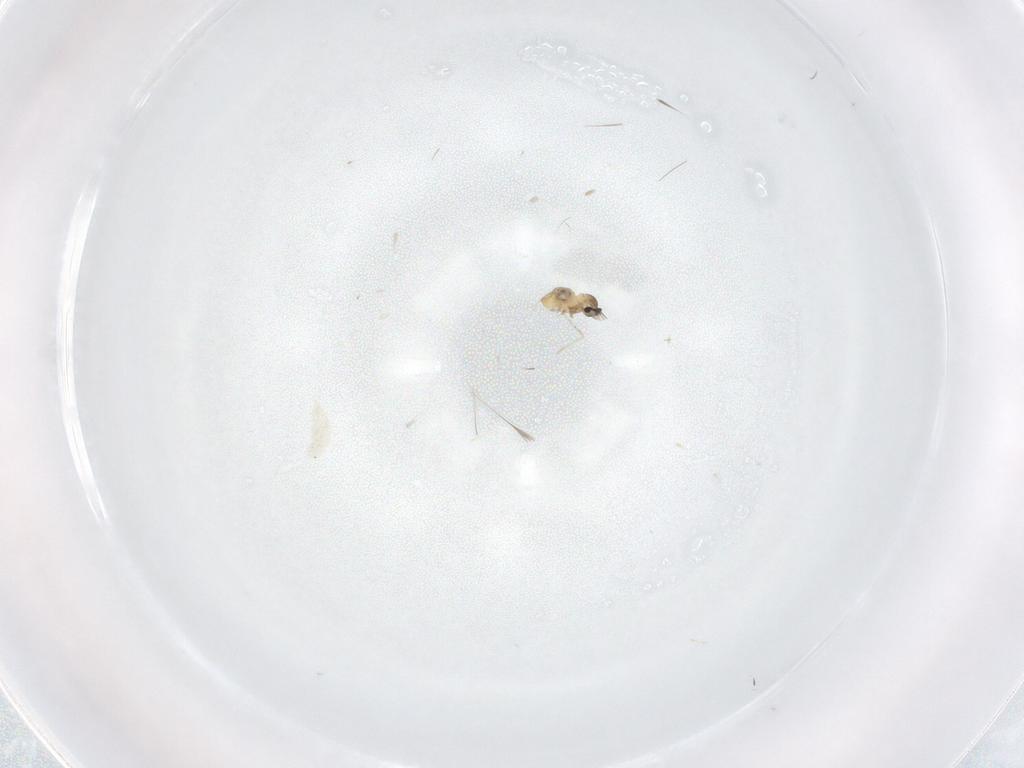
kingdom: Animalia
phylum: Arthropoda
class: Insecta
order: Diptera
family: Cecidomyiidae
